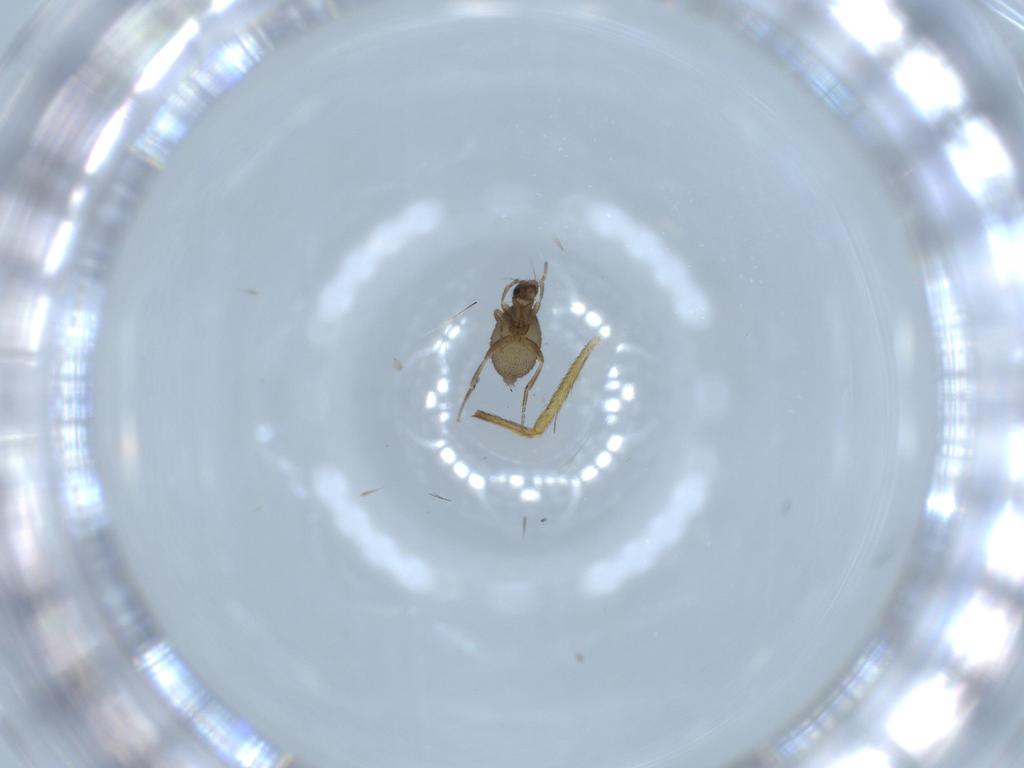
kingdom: Animalia
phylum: Arthropoda
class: Insecta
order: Diptera
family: Phoridae
